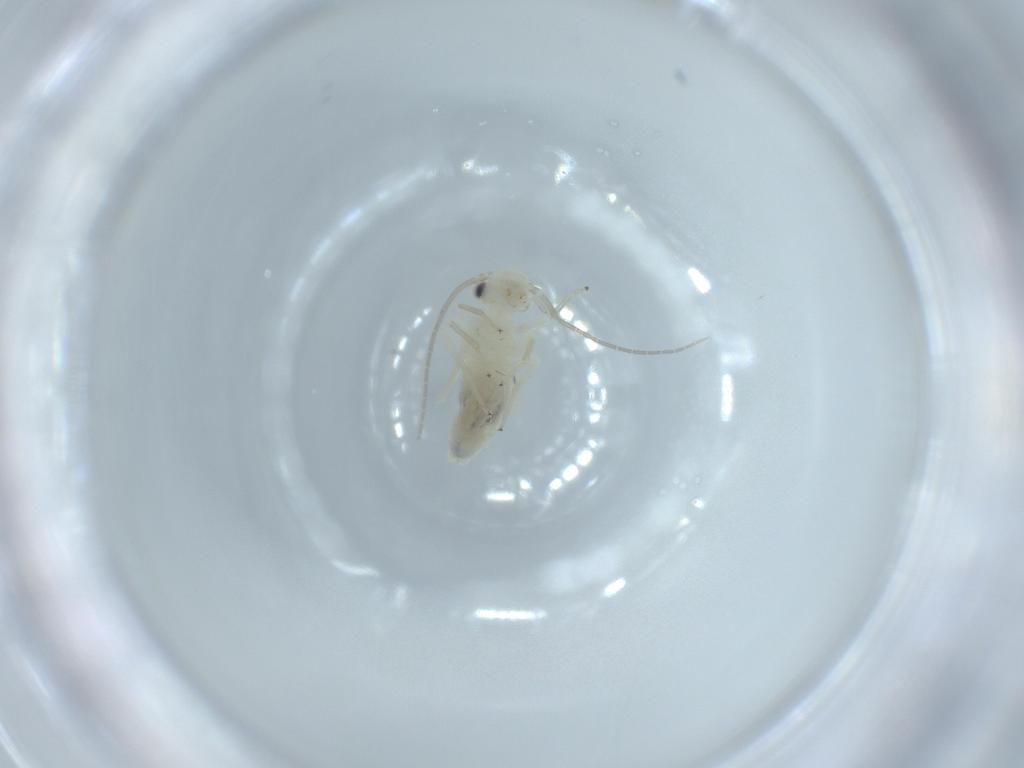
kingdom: Animalia
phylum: Arthropoda
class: Insecta
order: Psocodea
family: Caeciliusidae
